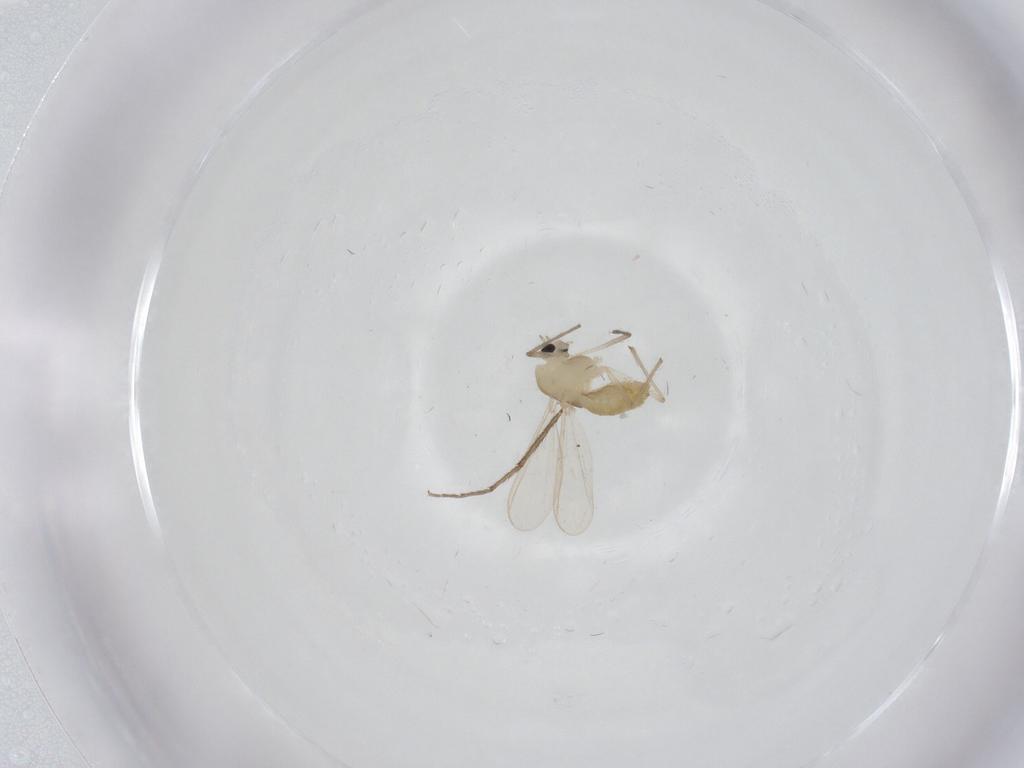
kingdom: Animalia
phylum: Arthropoda
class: Insecta
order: Diptera
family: Chironomidae
